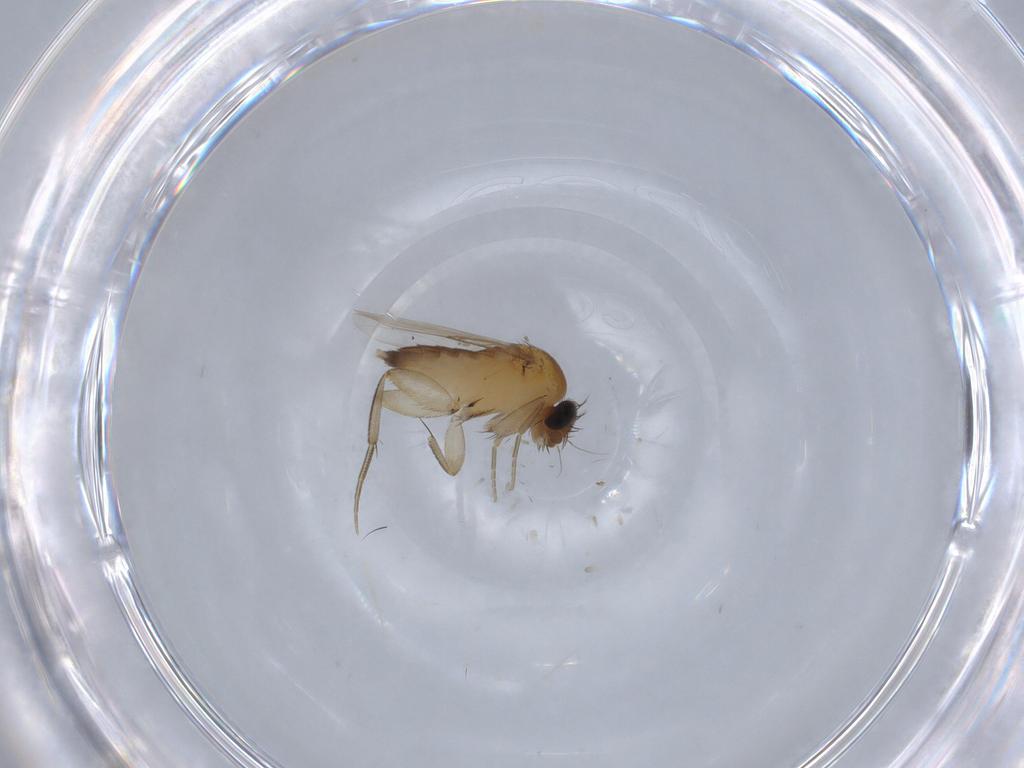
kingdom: Animalia
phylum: Arthropoda
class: Insecta
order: Diptera
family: Phoridae
